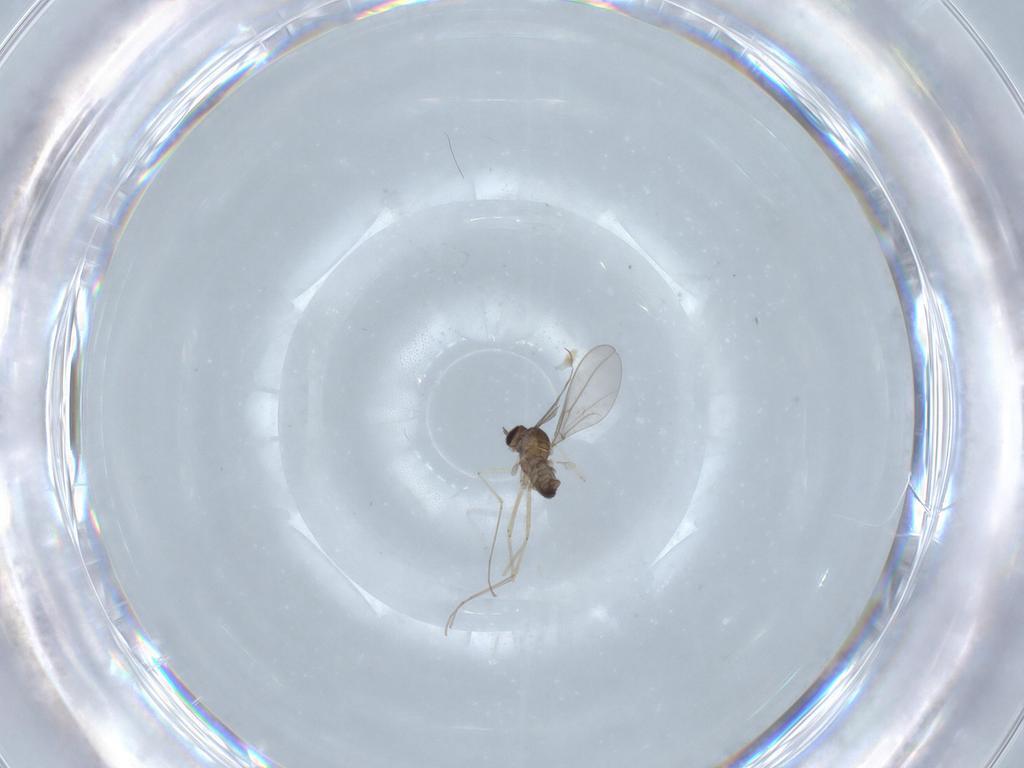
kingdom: Animalia
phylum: Arthropoda
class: Insecta
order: Diptera
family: Cecidomyiidae
